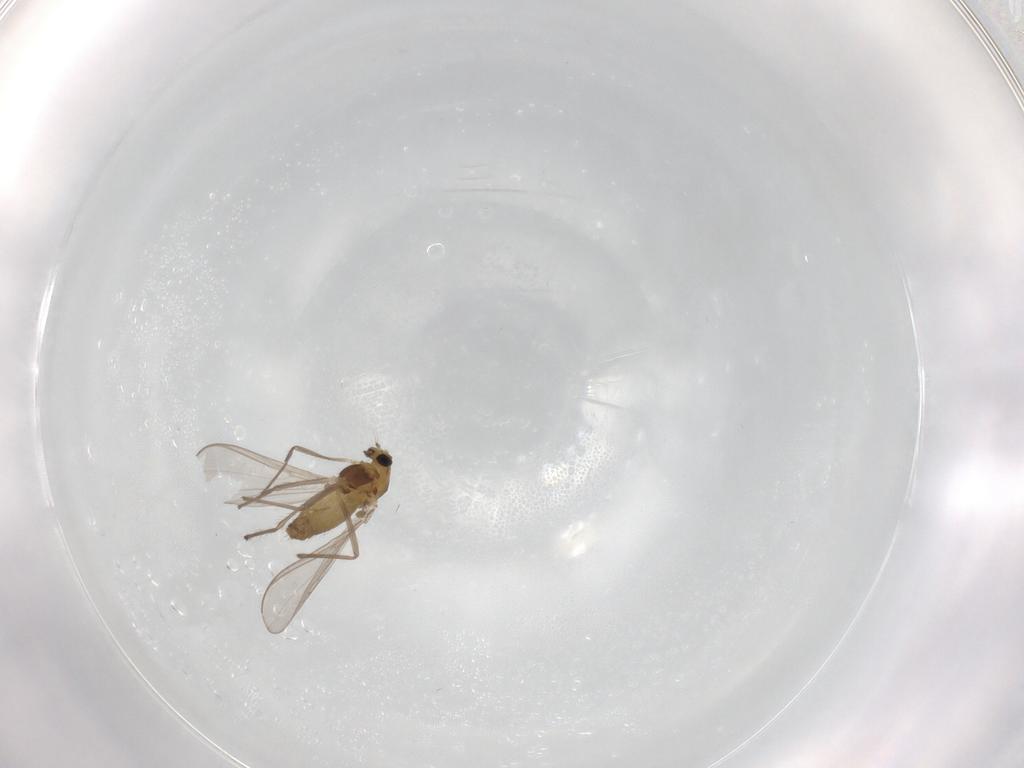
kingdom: Animalia
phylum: Arthropoda
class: Insecta
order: Diptera
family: Chironomidae
